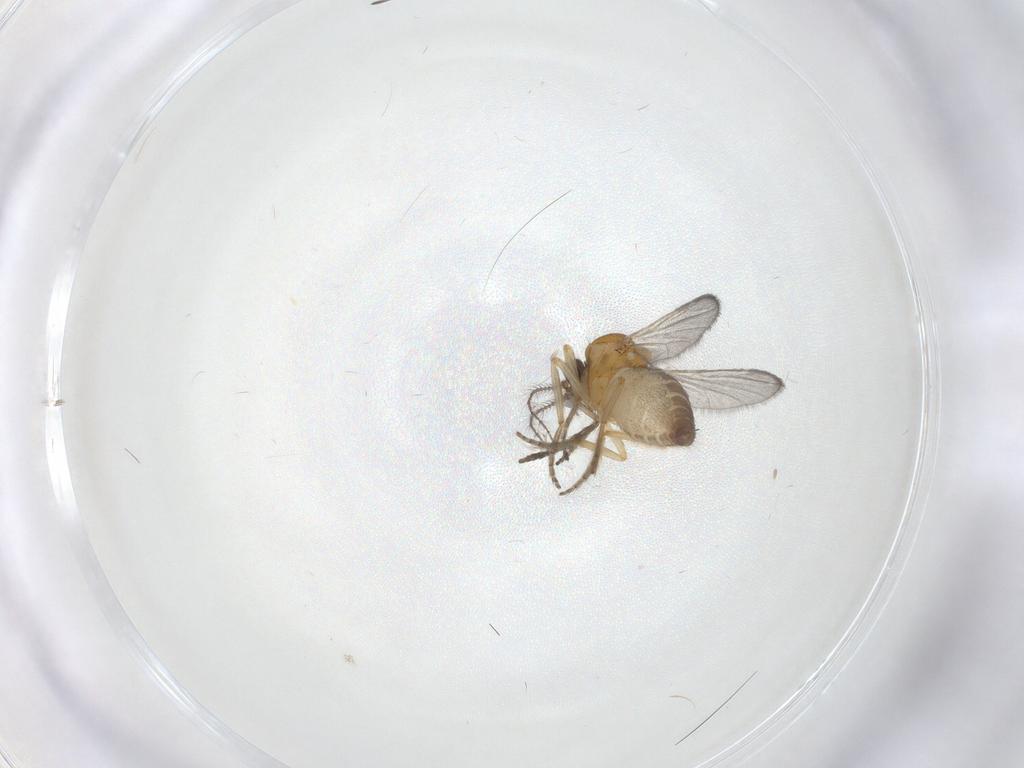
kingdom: Animalia
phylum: Arthropoda
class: Insecta
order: Diptera
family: Ceratopogonidae
